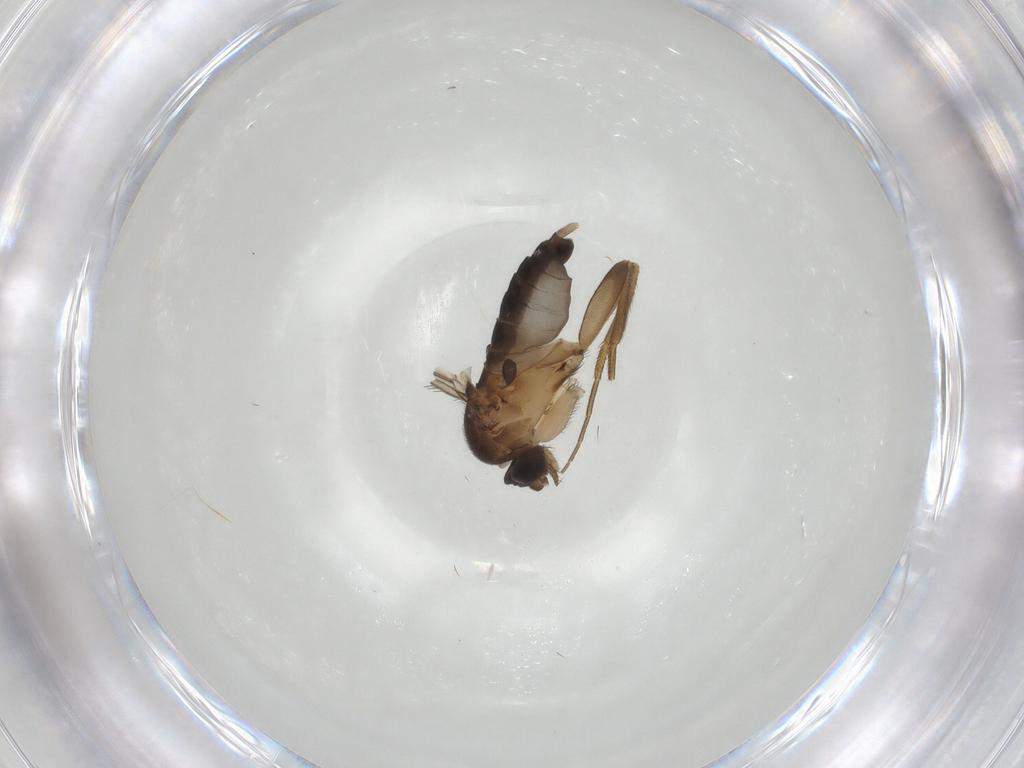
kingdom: Animalia
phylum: Arthropoda
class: Insecta
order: Diptera
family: Phoridae
